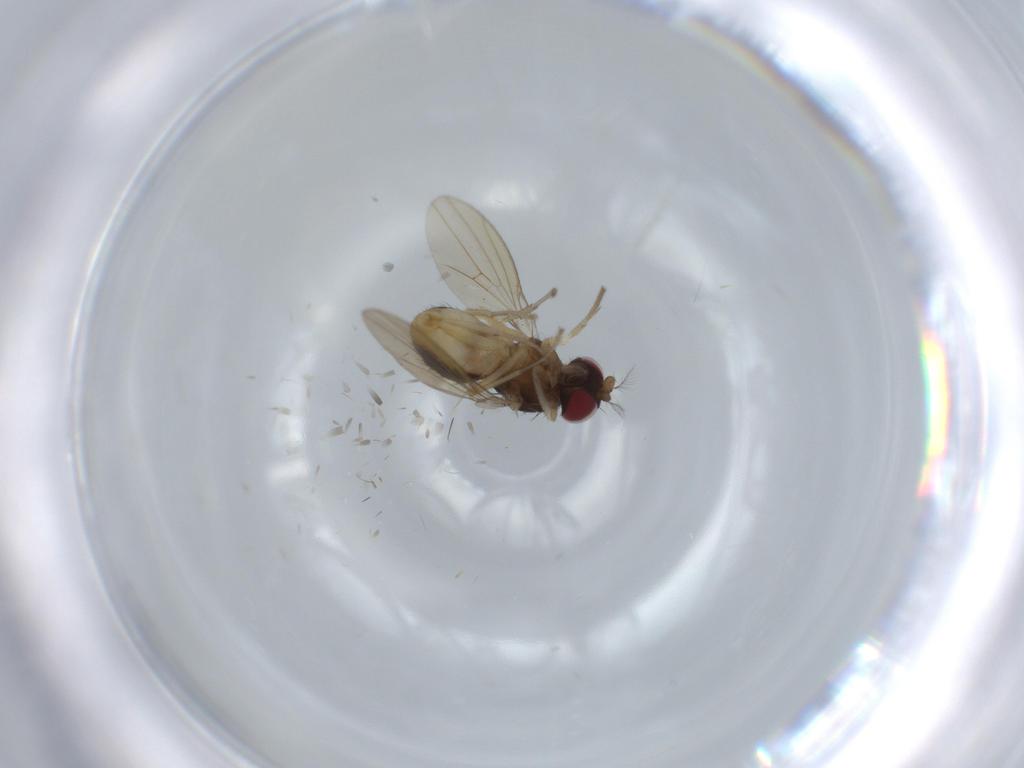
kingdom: Animalia
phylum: Arthropoda
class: Insecta
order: Diptera
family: Lauxaniidae
